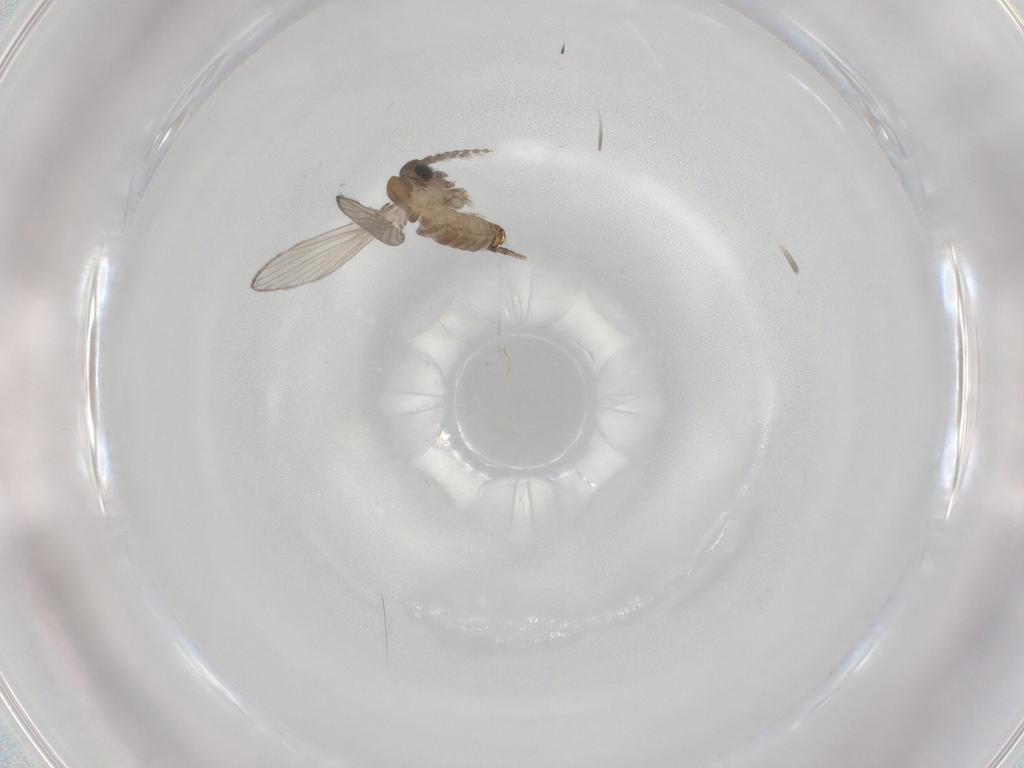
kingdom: Animalia
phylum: Arthropoda
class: Insecta
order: Diptera
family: Psychodidae
